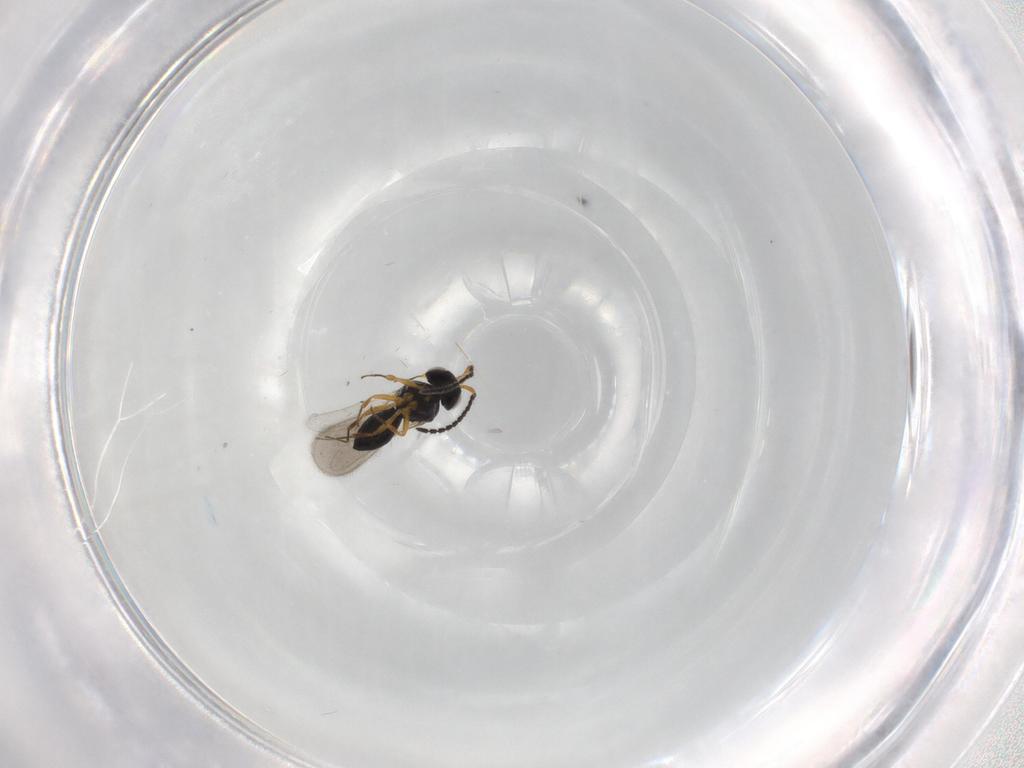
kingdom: Animalia
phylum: Arthropoda
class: Insecta
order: Hymenoptera
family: Scelionidae
